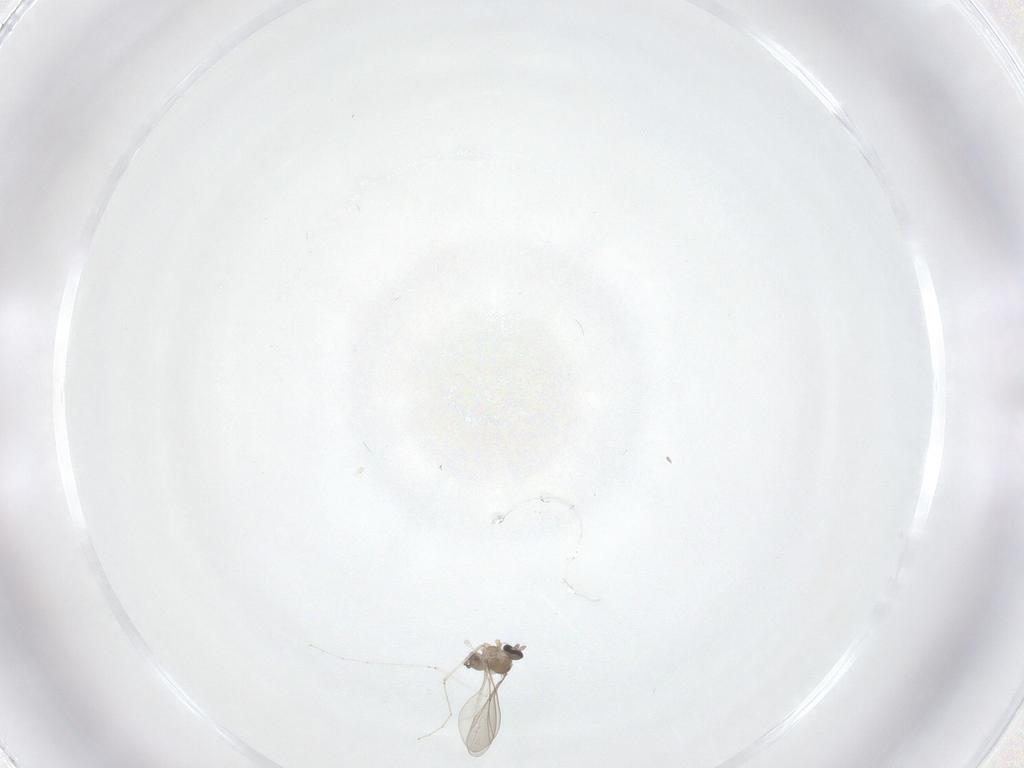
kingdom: Animalia
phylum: Arthropoda
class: Insecta
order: Diptera
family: Cecidomyiidae
